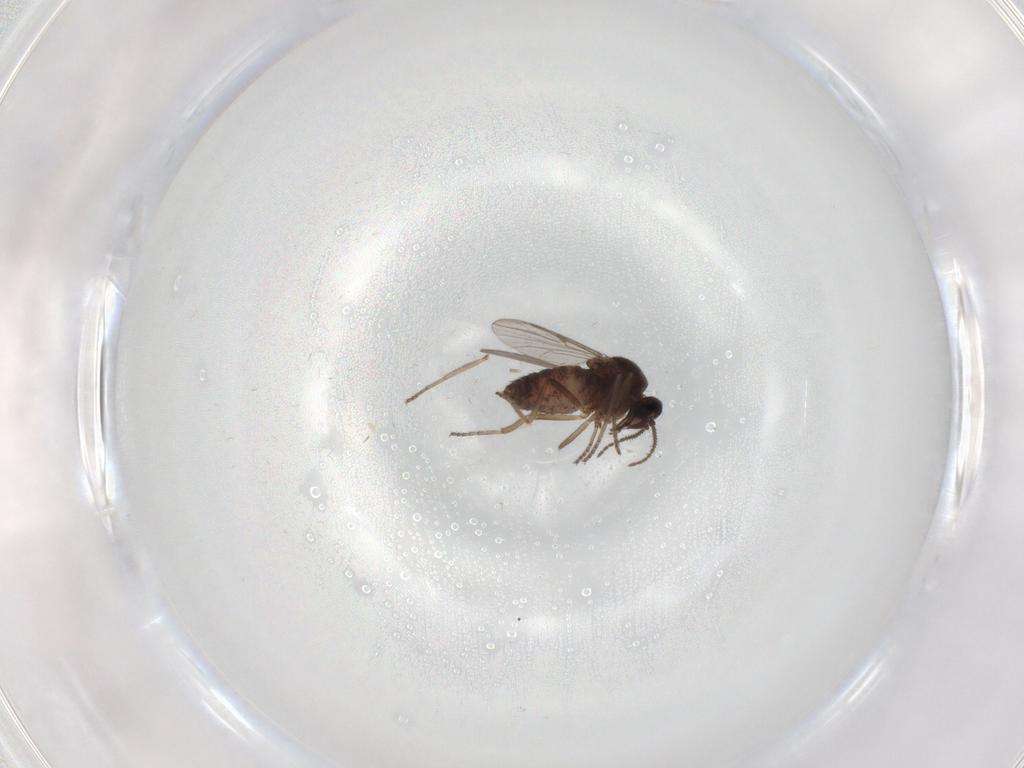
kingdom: Animalia
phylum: Arthropoda
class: Insecta
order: Diptera
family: Ceratopogonidae
